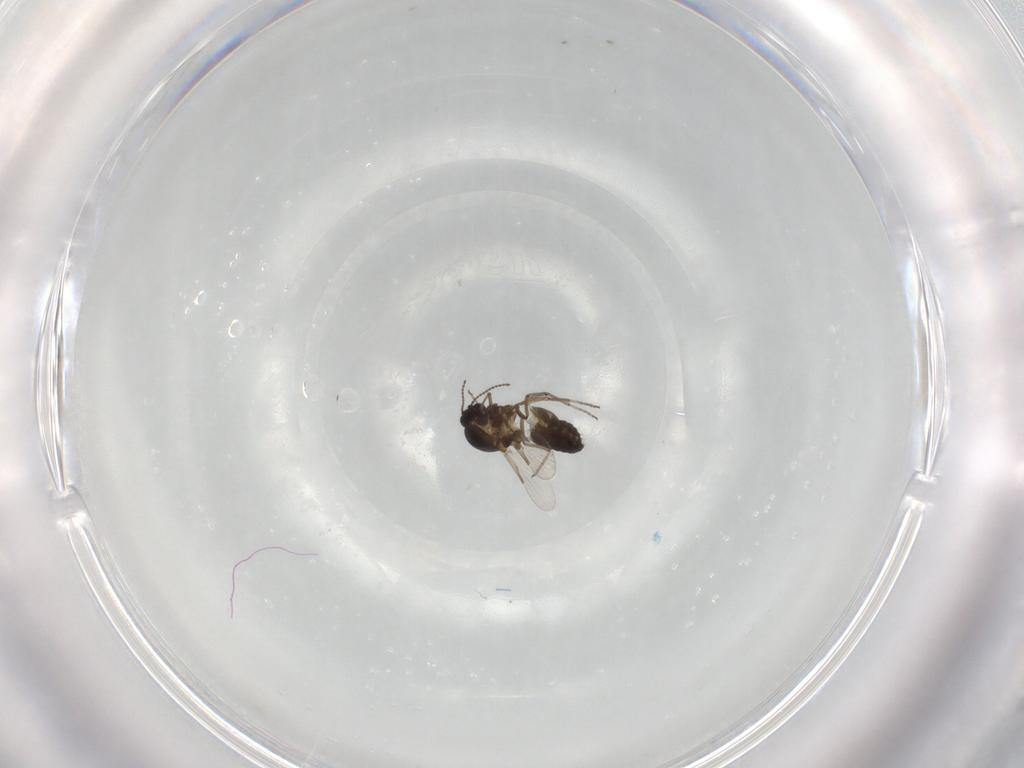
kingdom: Animalia
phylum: Arthropoda
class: Insecta
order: Diptera
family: Ceratopogonidae
